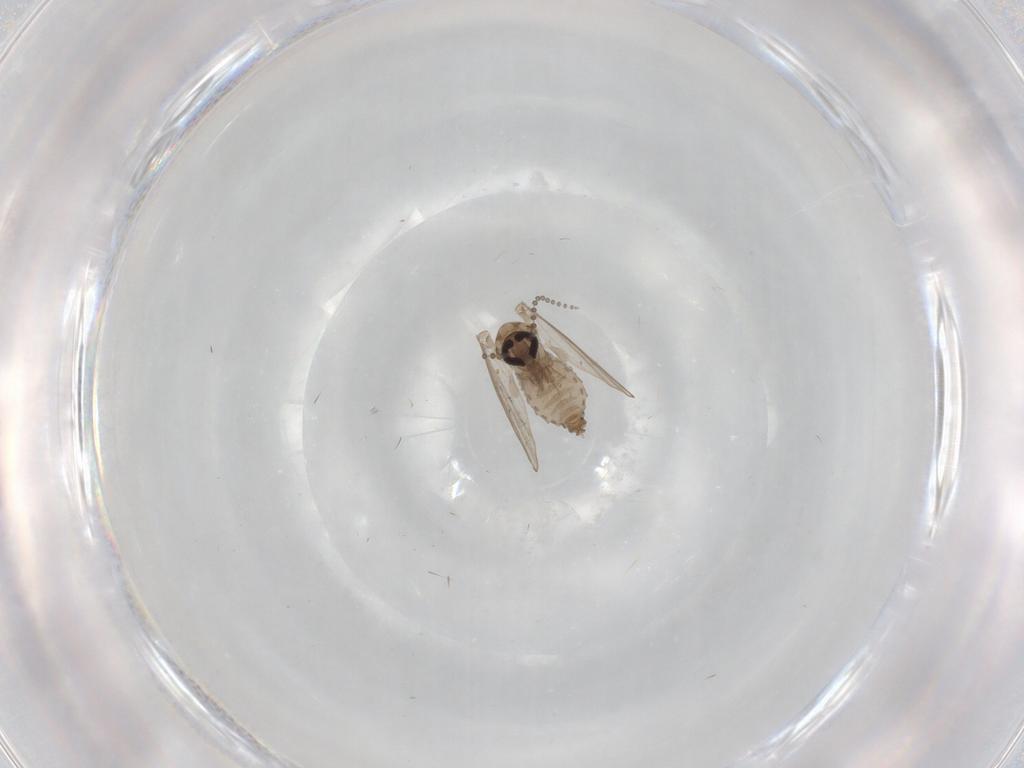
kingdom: Animalia
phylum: Arthropoda
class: Insecta
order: Diptera
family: Psychodidae
